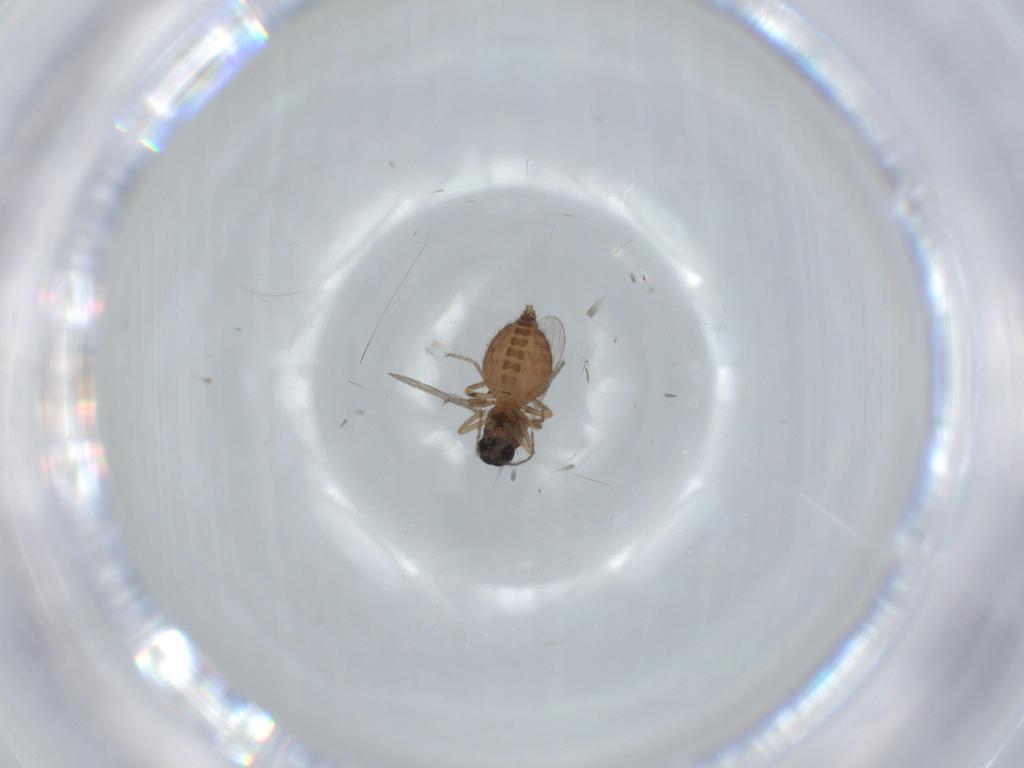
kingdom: Animalia
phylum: Arthropoda
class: Insecta
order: Diptera
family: Ceratopogonidae
